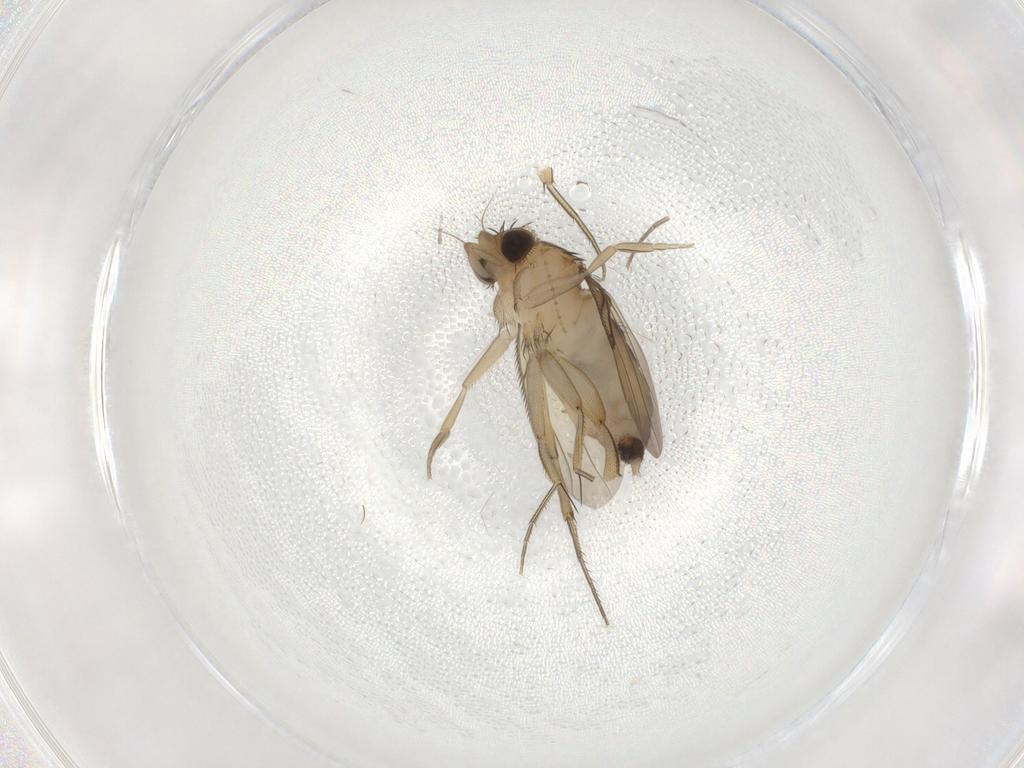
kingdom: Animalia
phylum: Arthropoda
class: Insecta
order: Diptera
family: Phoridae
